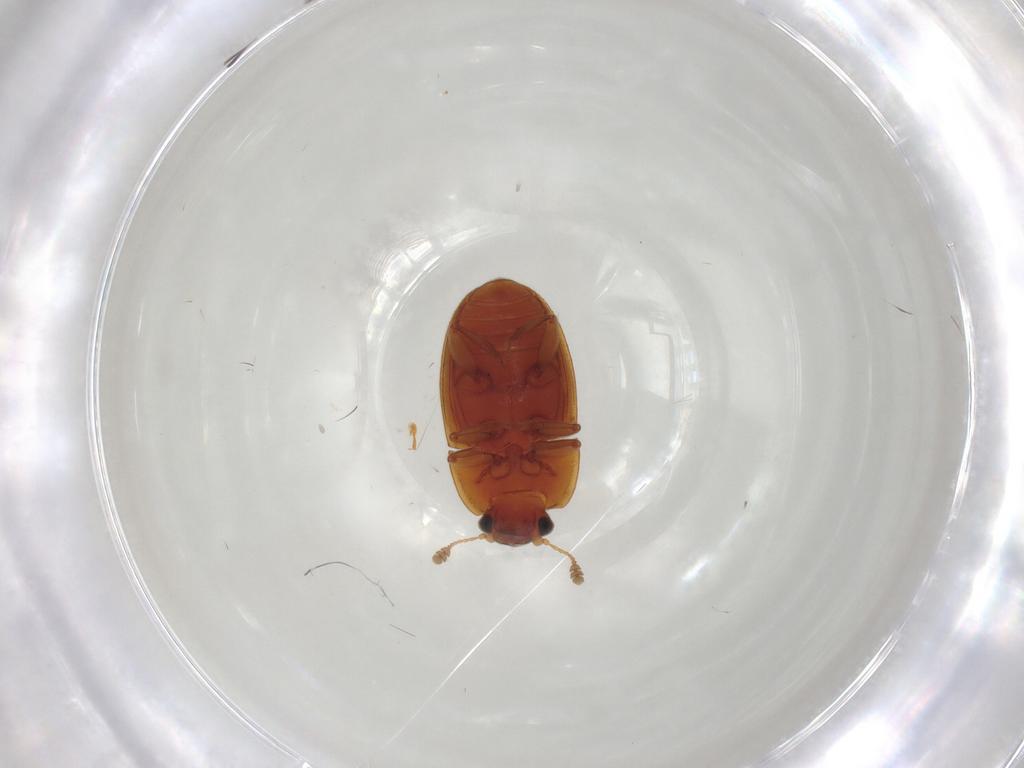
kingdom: Animalia
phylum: Arthropoda
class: Insecta
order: Coleoptera
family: Nitidulidae
